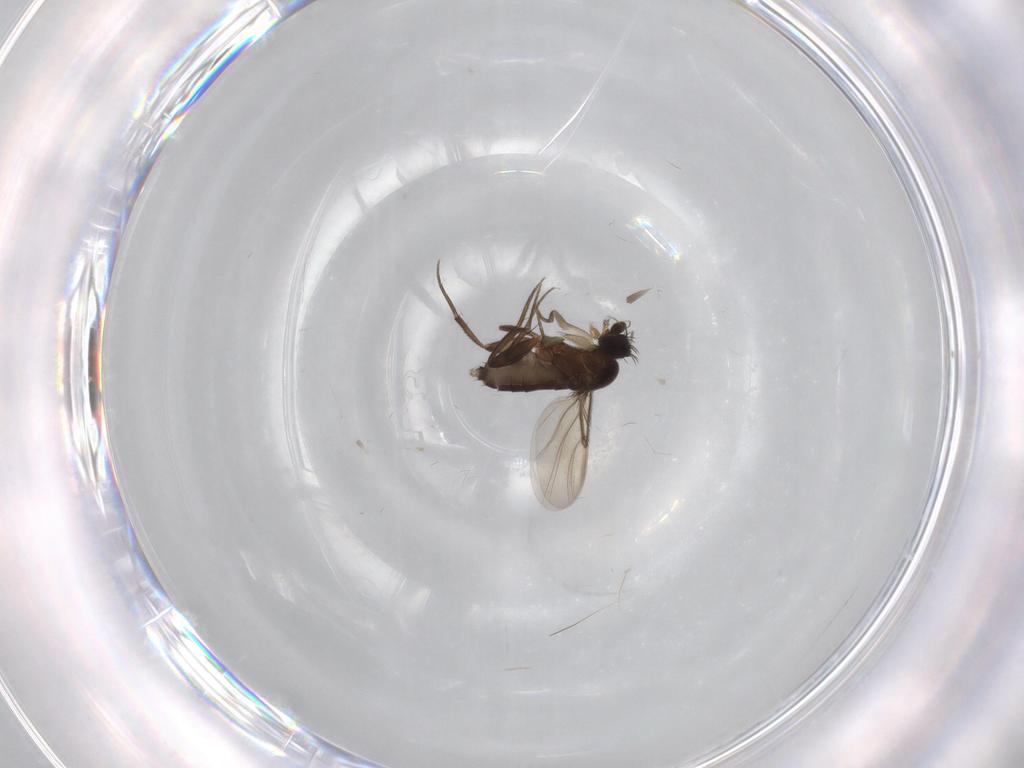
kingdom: Animalia
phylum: Arthropoda
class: Insecta
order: Diptera
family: Phoridae
